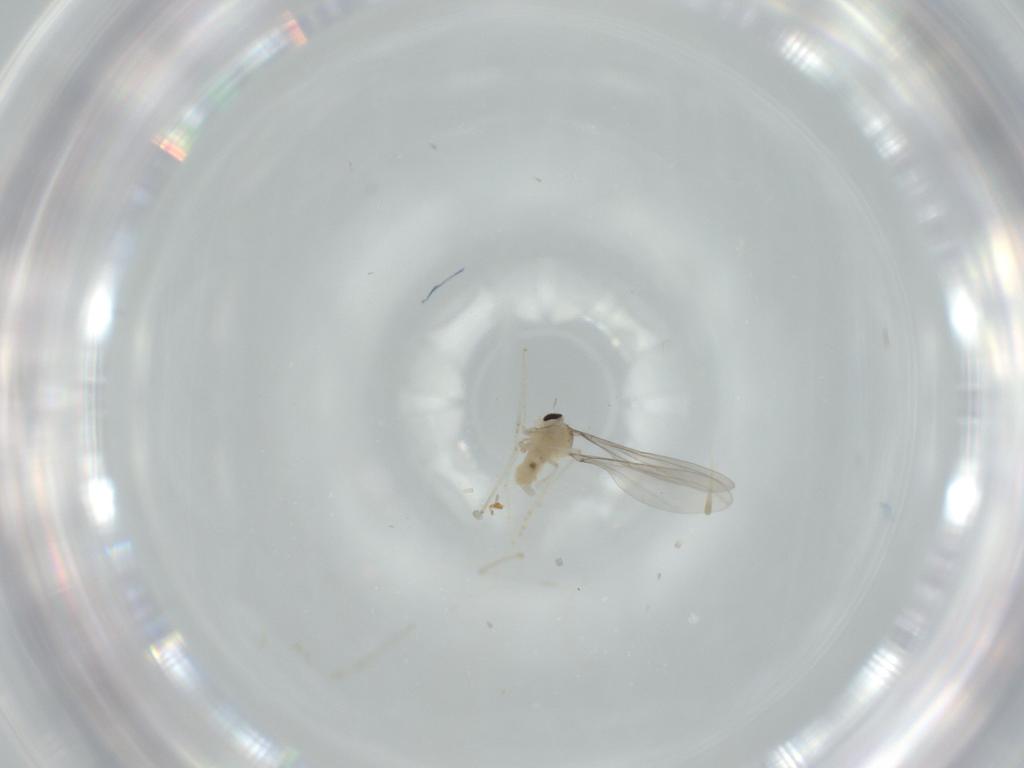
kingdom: Animalia
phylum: Arthropoda
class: Insecta
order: Diptera
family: Cecidomyiidae
